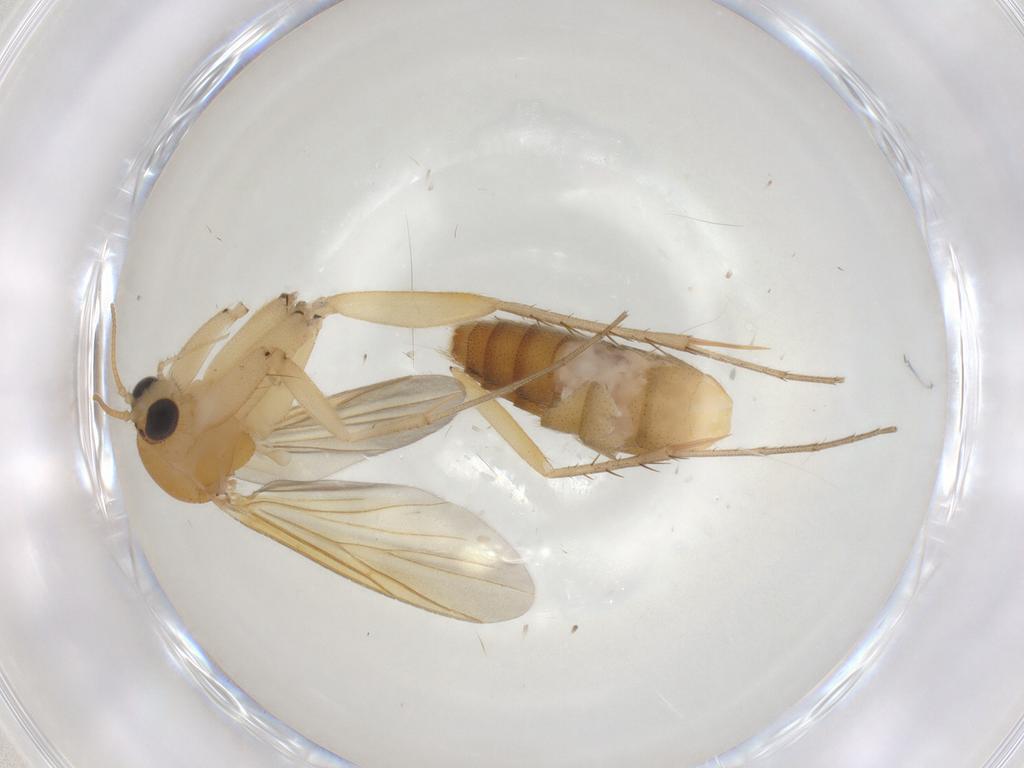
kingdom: Animalia
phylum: Arthropoda
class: Insecta
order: Diptera
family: Mycetophilidae
